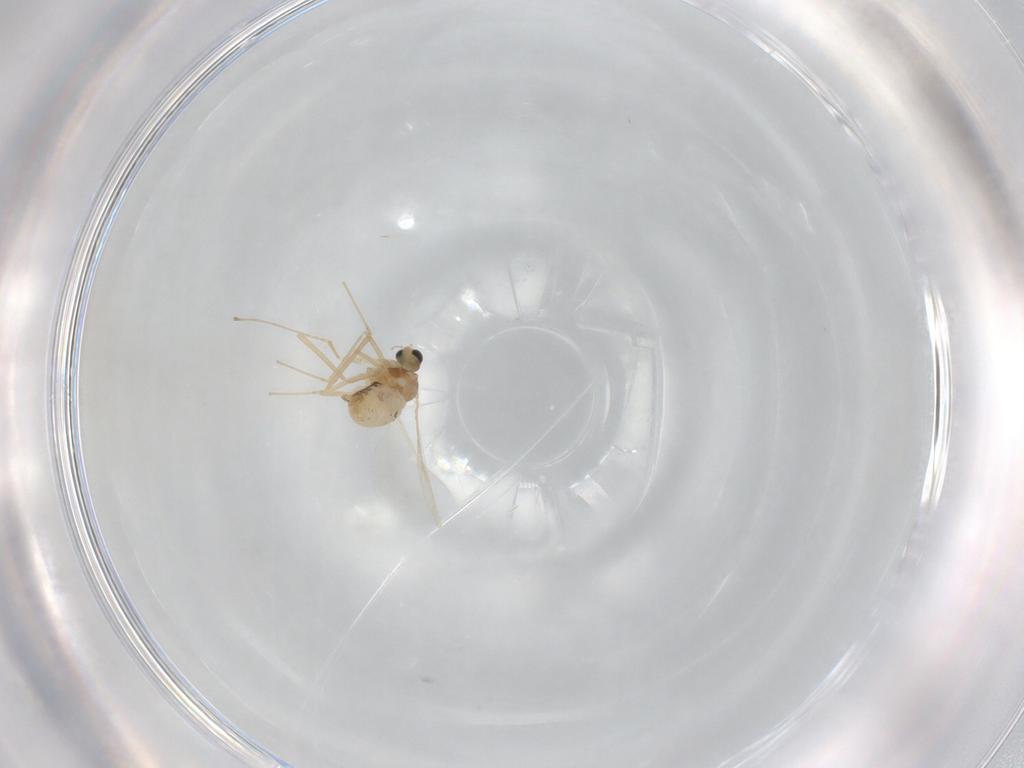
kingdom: Animalia
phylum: Arthropoda
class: Insecta
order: Diptera
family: Cecidomyiidae
